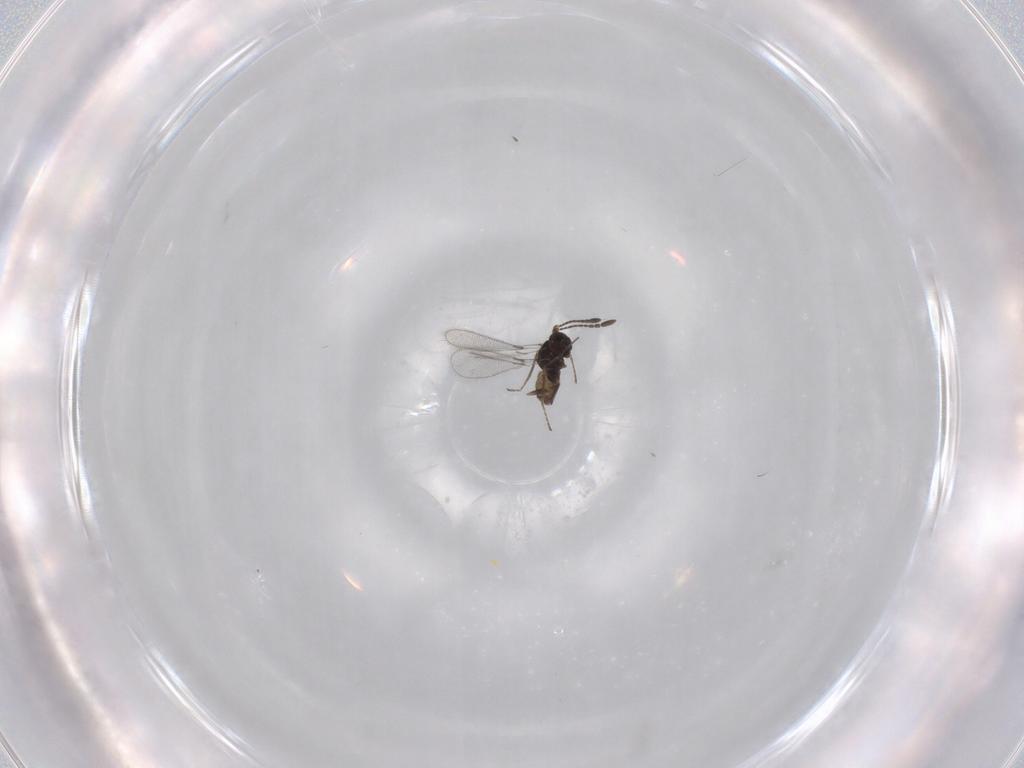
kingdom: Animalia
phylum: Arthropoda
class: Insecta
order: Hymenoptera
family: Mymaridae
